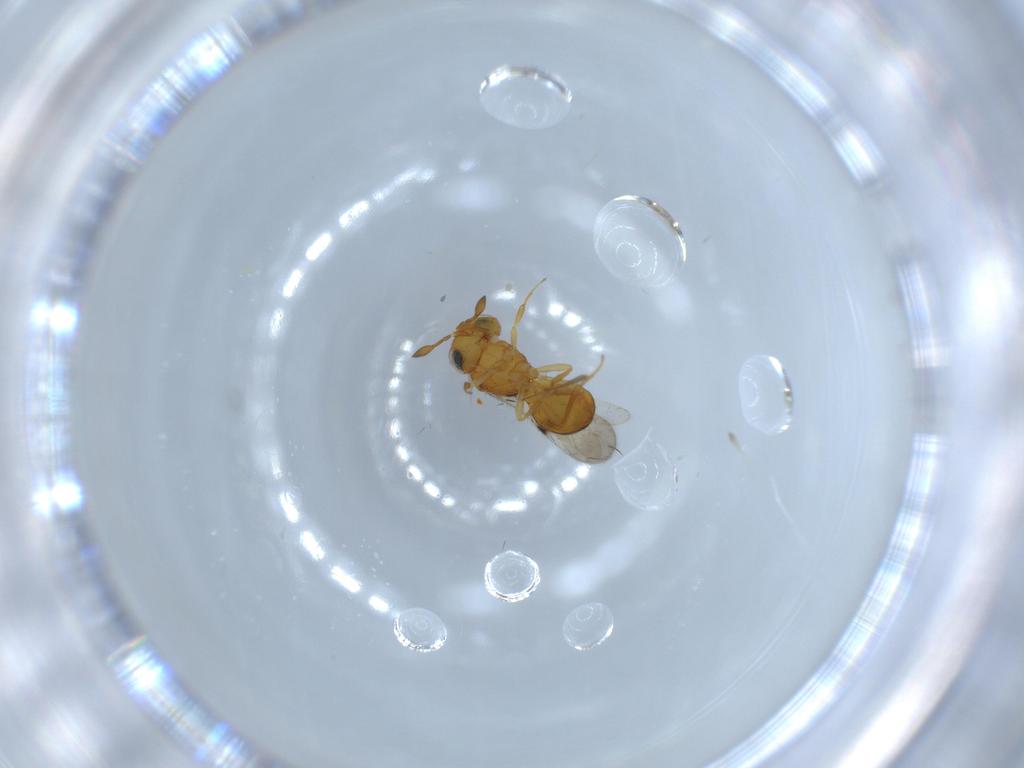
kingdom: Animalia
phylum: Arthropoda
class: Insecta
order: Hymenoptera
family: Scelionidae
